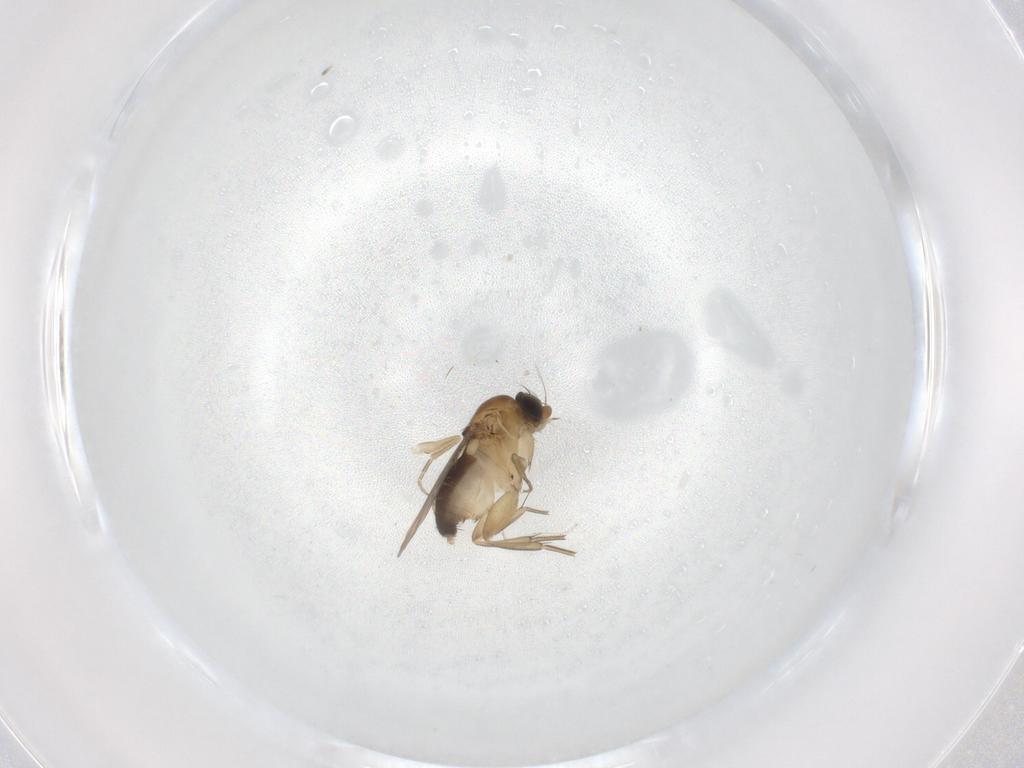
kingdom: Animalia
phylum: Arthropoda
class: Insecta
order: Diptera
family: Phoridae
